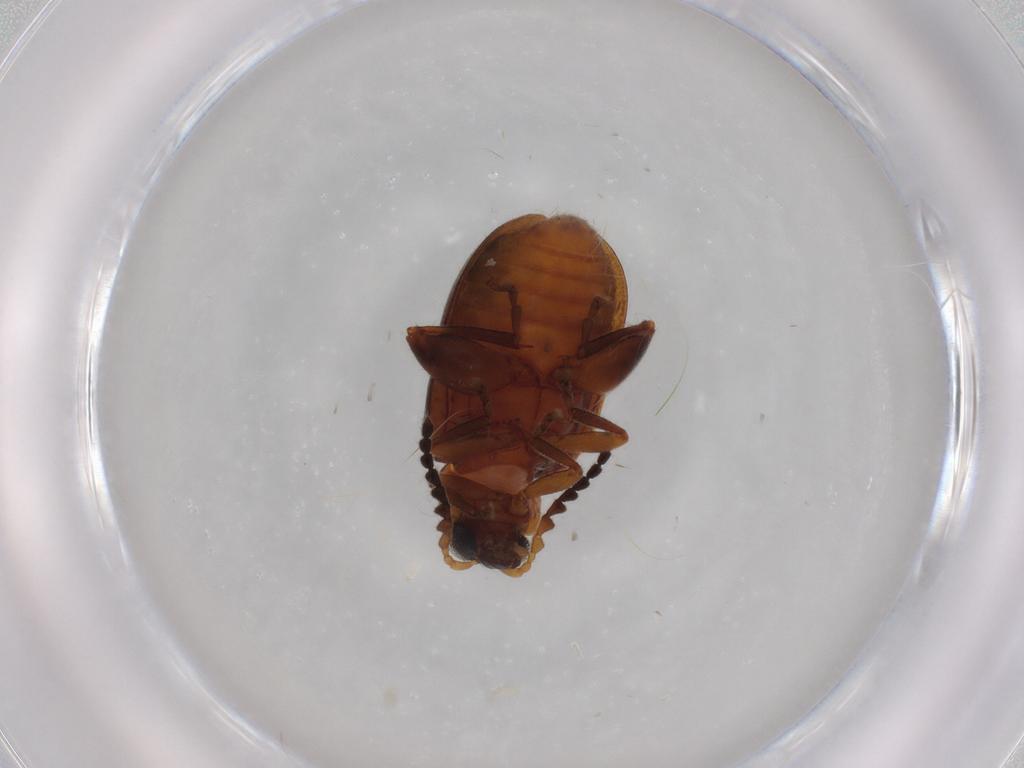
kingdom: Animalia
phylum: Arthropoda
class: Insecta
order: Coleoptera
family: Chrysomelidae
